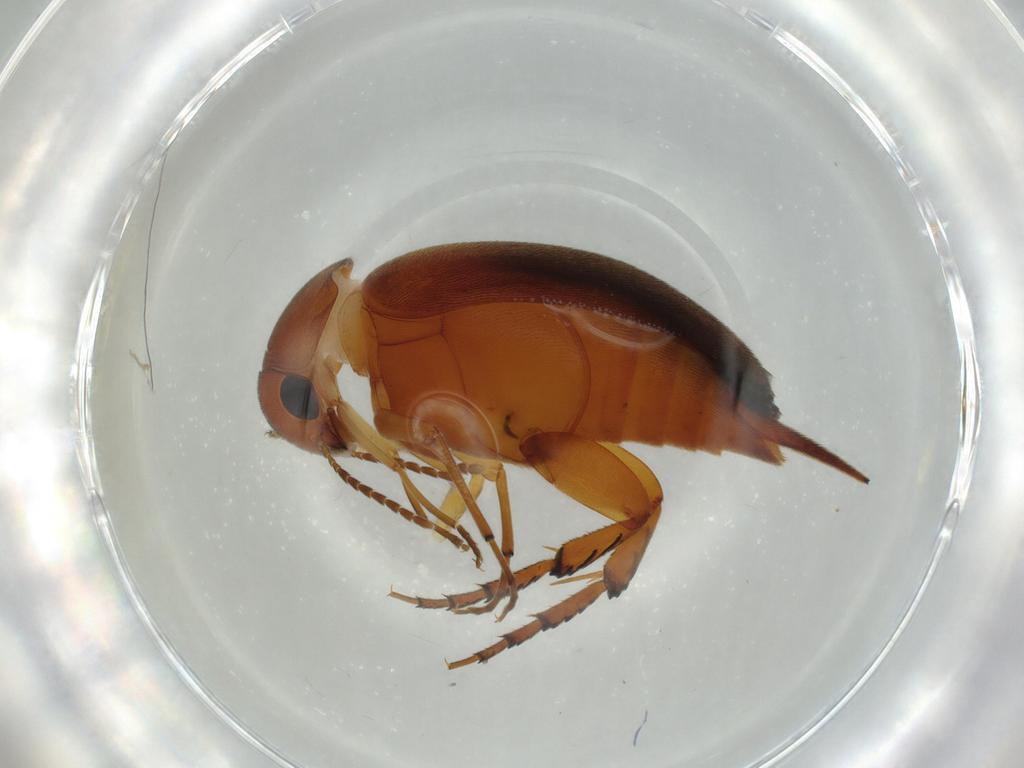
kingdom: Animalia
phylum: Arthropoda
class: Insecta
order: Coleoptera
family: Mordellidae
